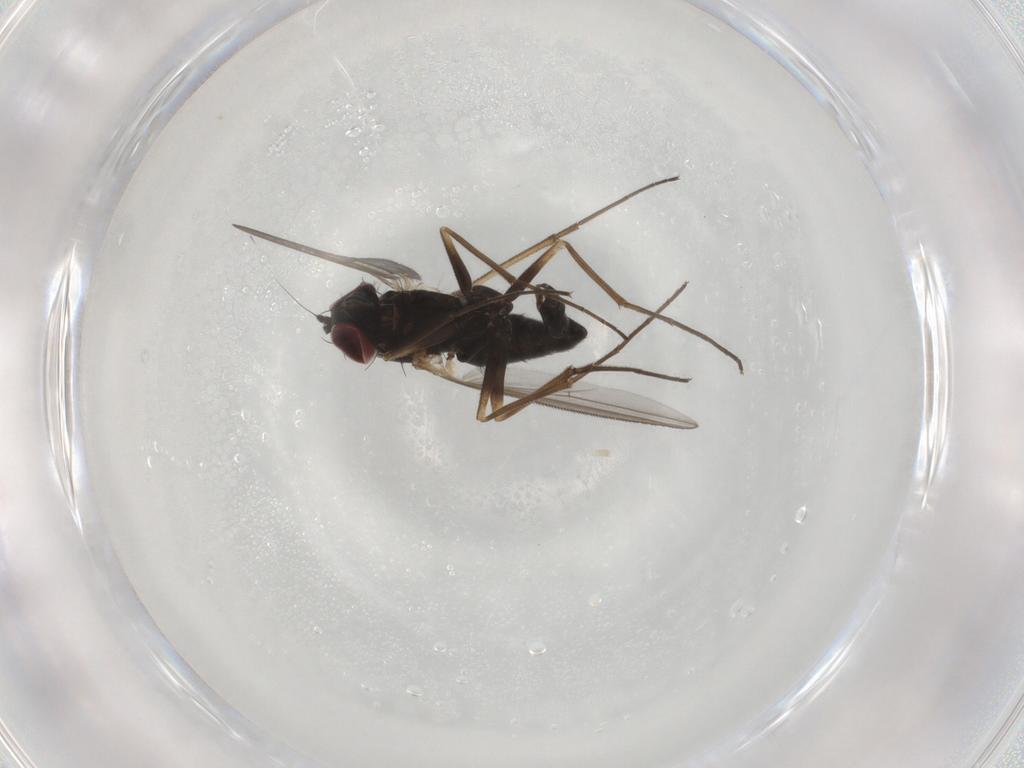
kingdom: Animalia
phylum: Arthropoda
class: Insecta
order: Diptera
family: Dolichopodidae
